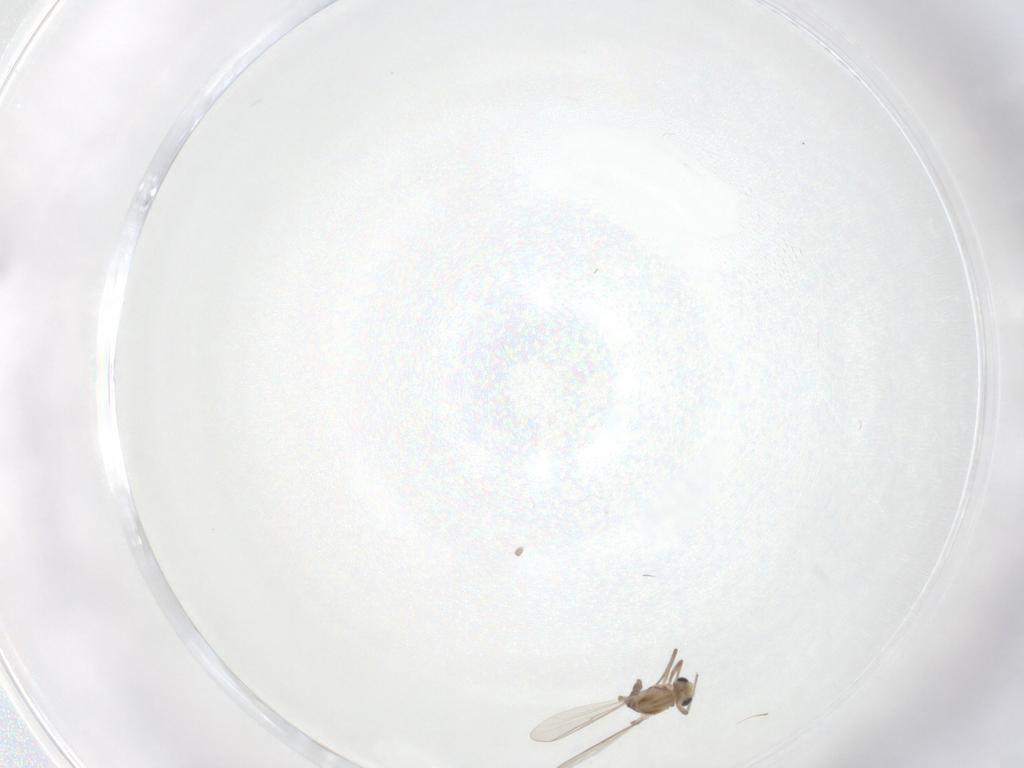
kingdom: Animalia
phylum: Arthropoda
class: Insecta
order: Diptera
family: Chironomidae
